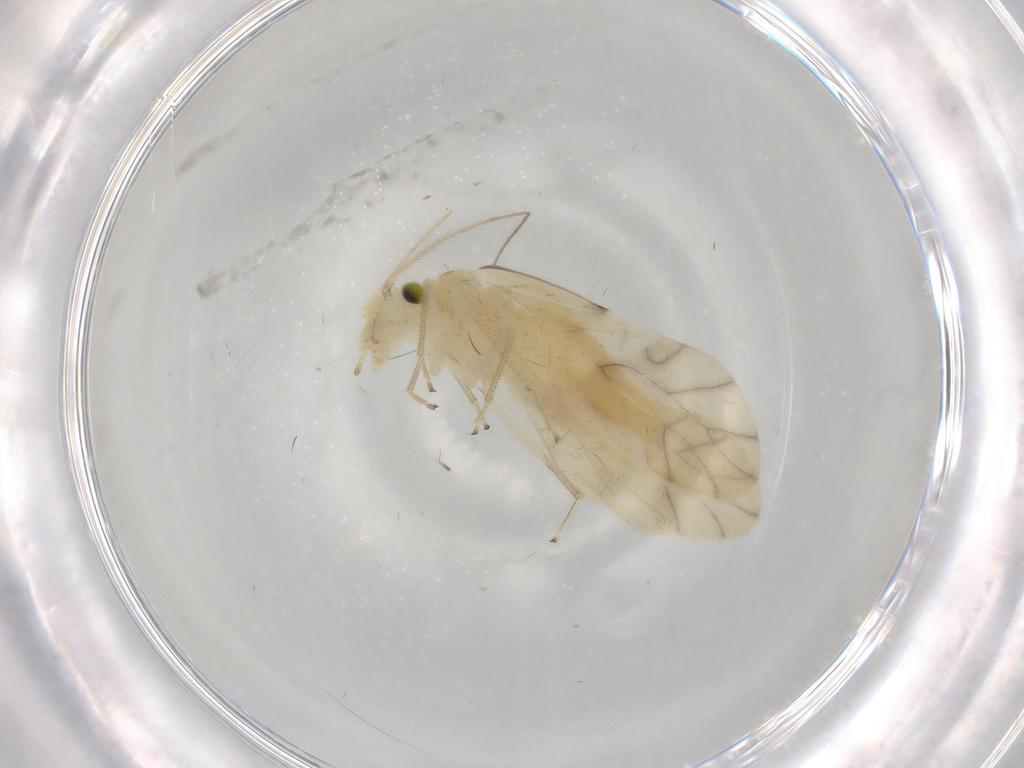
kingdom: Animalia
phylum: Arthropoda
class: Insecta
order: Psocodea
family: Caeciliusidae
